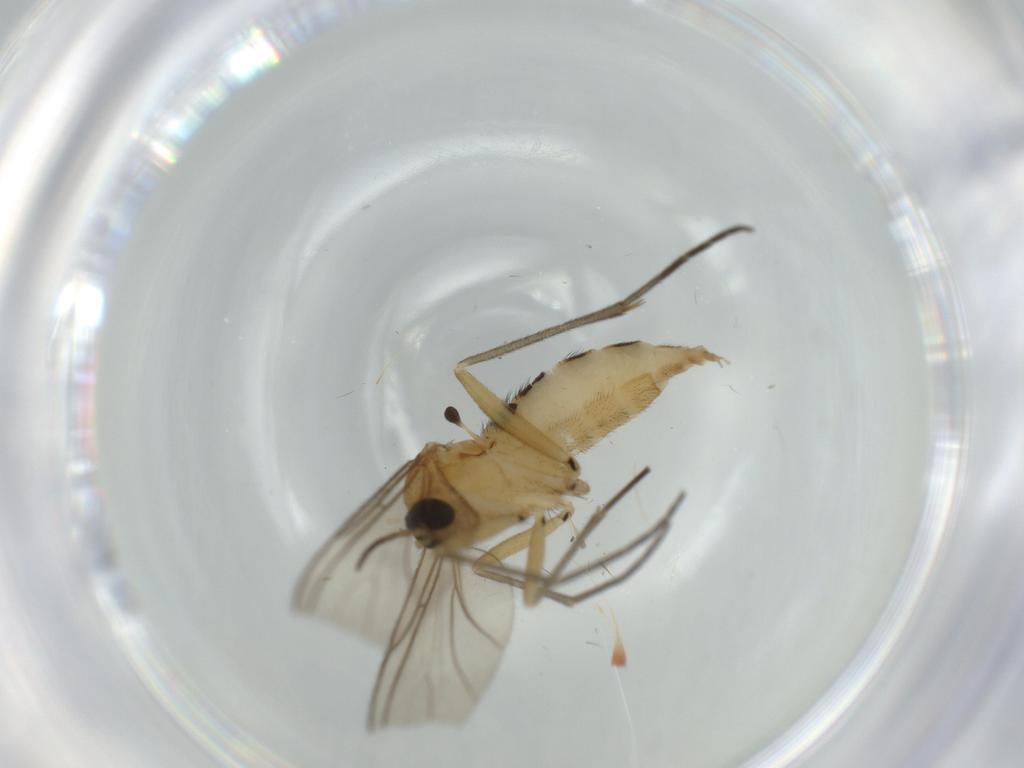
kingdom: Animalia
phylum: Arthropoda
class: Insecta
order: Diptera
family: Sciaridae
